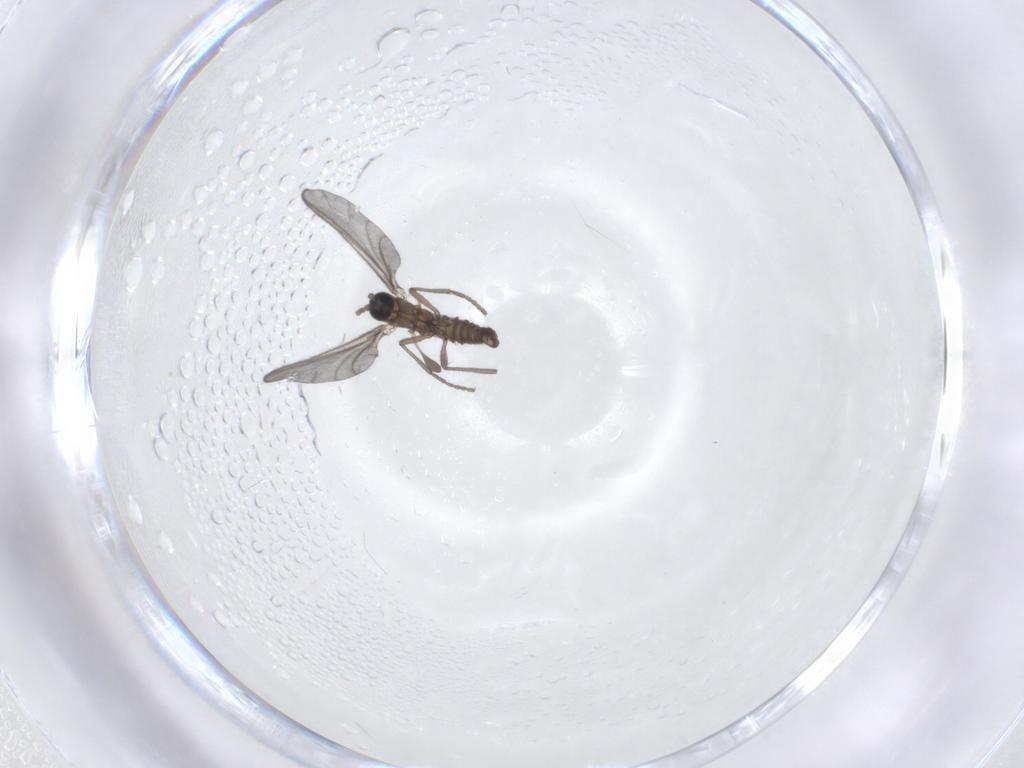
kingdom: Animalia
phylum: Arthropoda
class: Insecta
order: Diptera
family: Sciaridae
